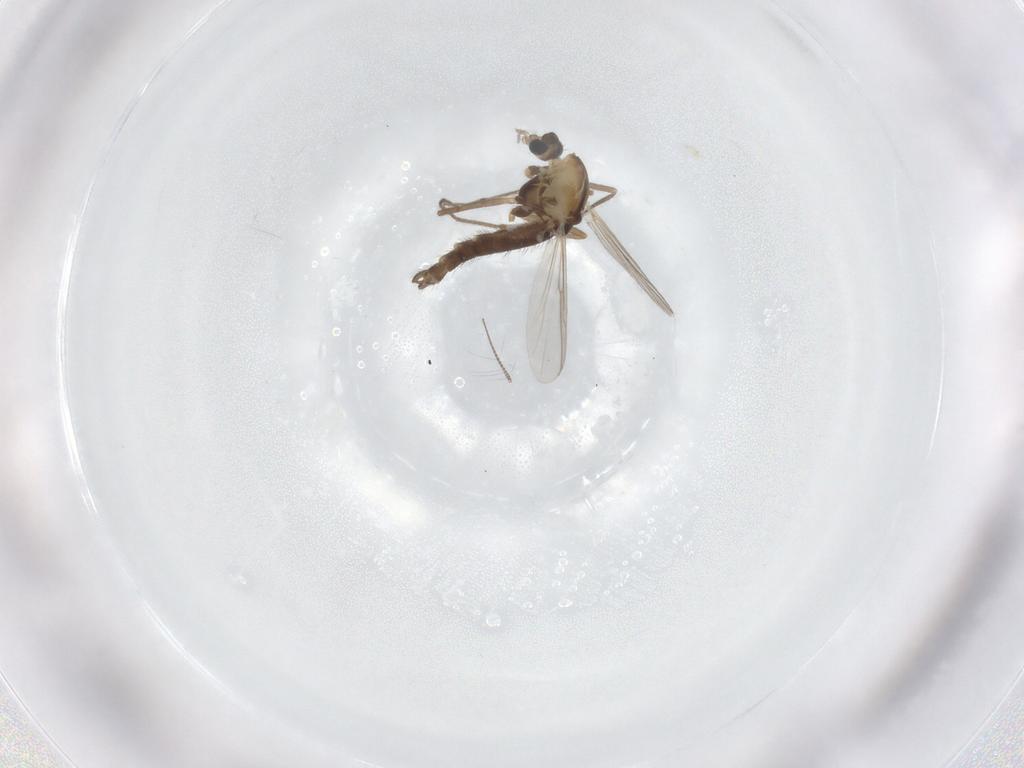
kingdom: Animalia
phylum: Arthropoda
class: Insecta
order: Diptera
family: Chironomidae
